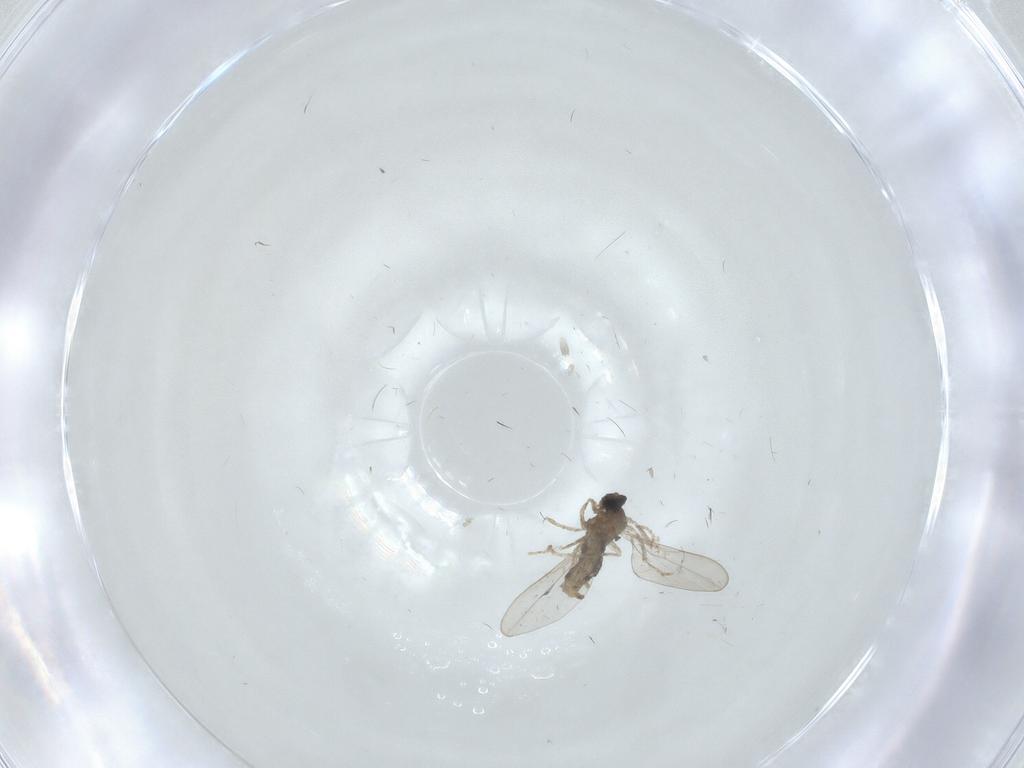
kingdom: Animalia
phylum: Arthropoda
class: Insecta
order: Diptera
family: Cecidomyiidae
